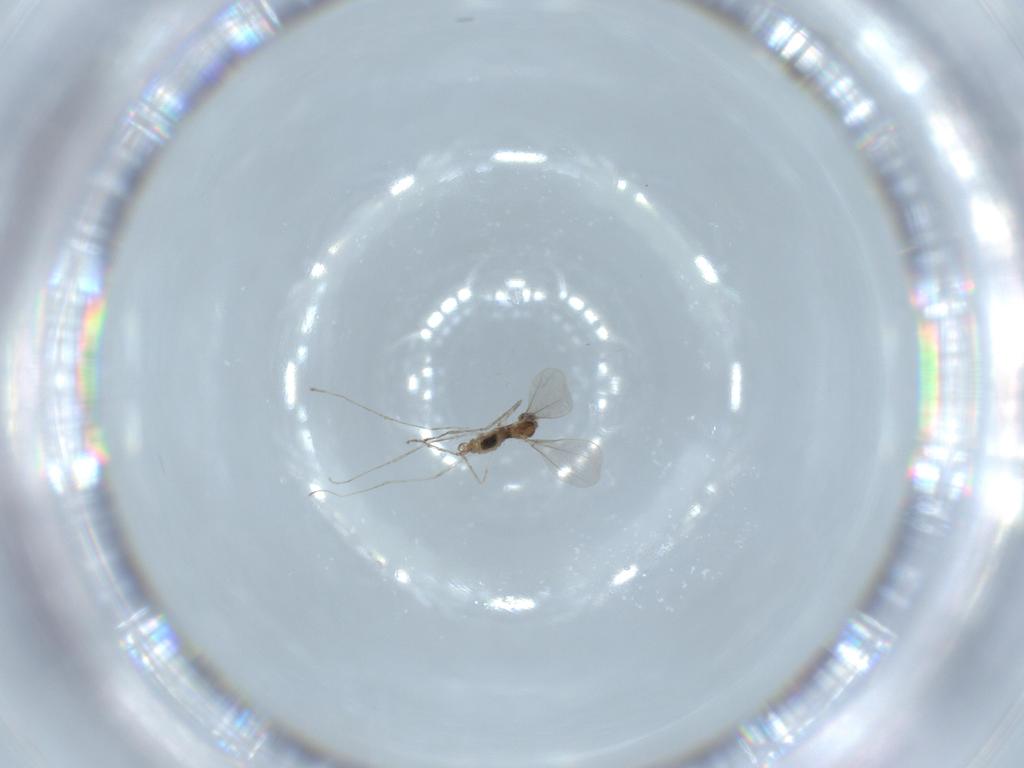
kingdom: Animalia
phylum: Arthropoda
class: Insecta
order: Diptera
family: Cecidomyiidae
